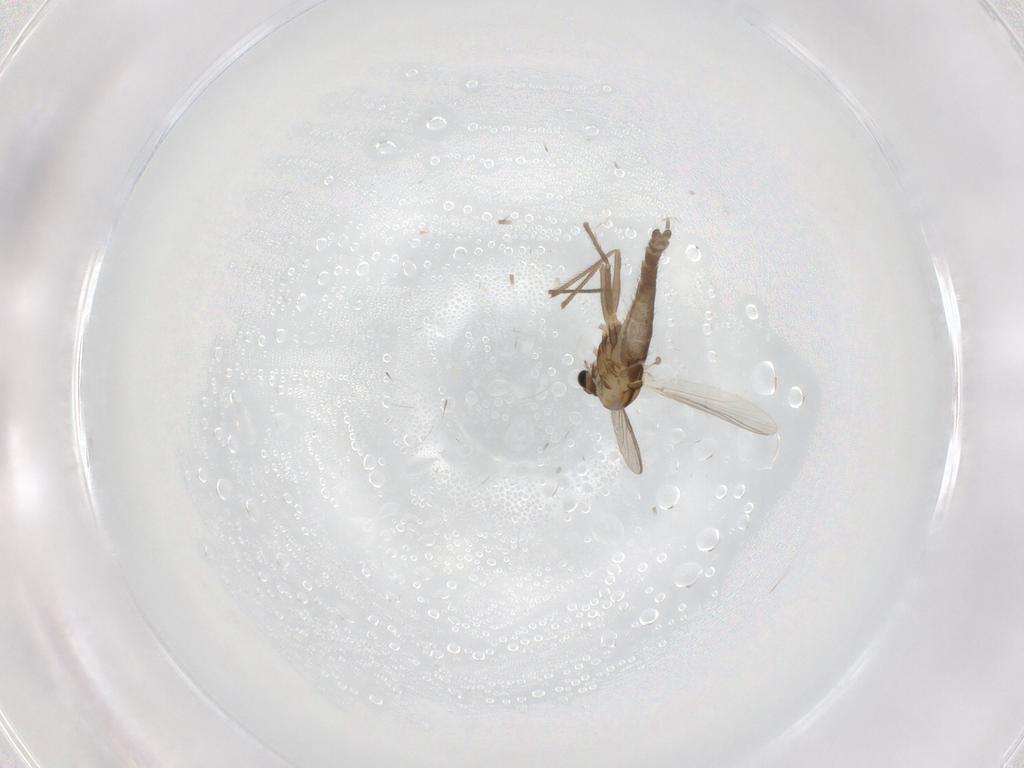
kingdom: Animalia
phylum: Arthropoda
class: Insecta
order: Diptera
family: Chironomidae
